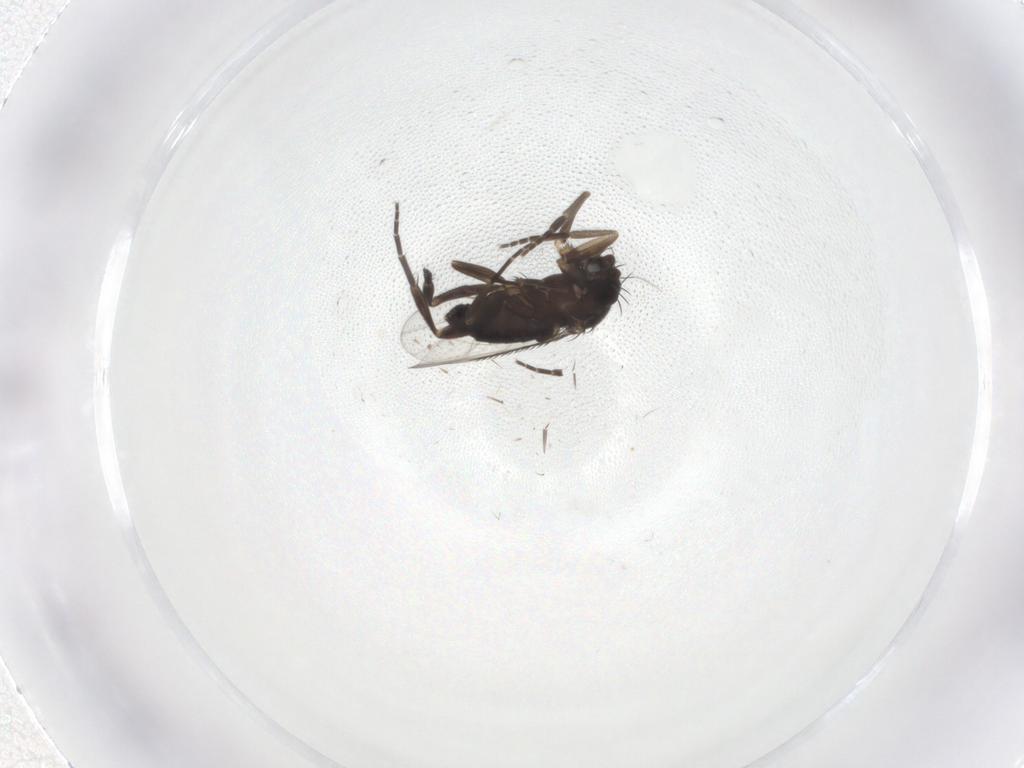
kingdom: Animalia
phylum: Arthropoda
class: Insecta
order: Diptera
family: Phoridae
